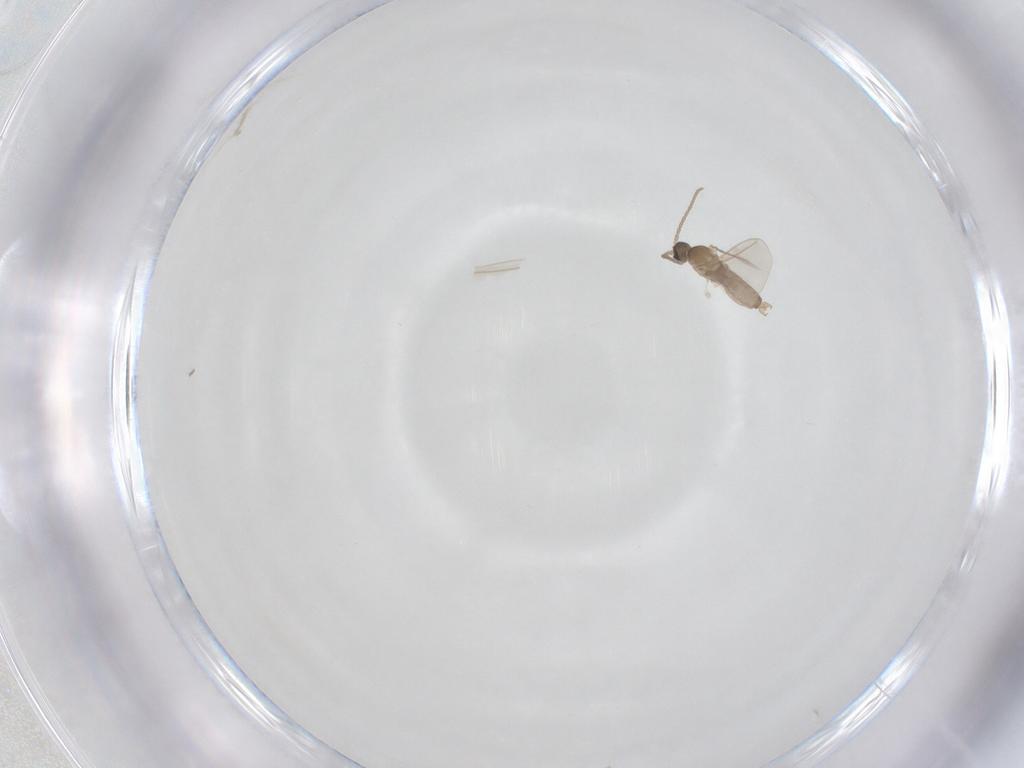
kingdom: Animalia
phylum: Arthropoda
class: Insecta
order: Diptera
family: Cecidomyiidae
